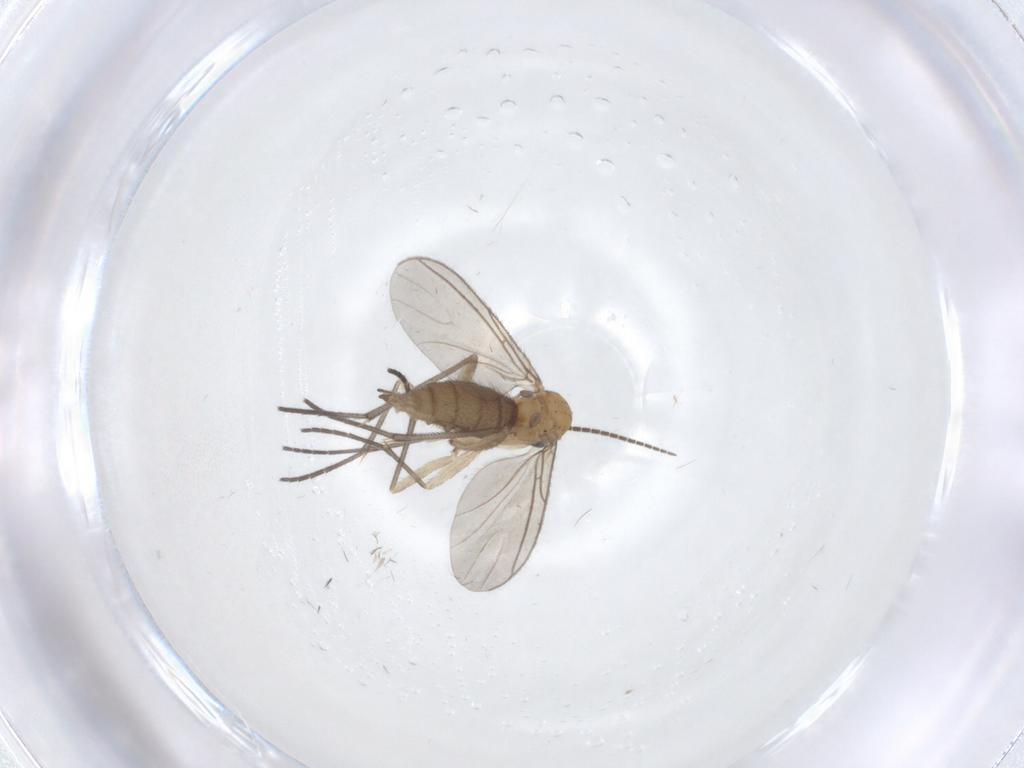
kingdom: Animalia
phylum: Arthropoda
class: Insecta
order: Diptera
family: Sciaridae
